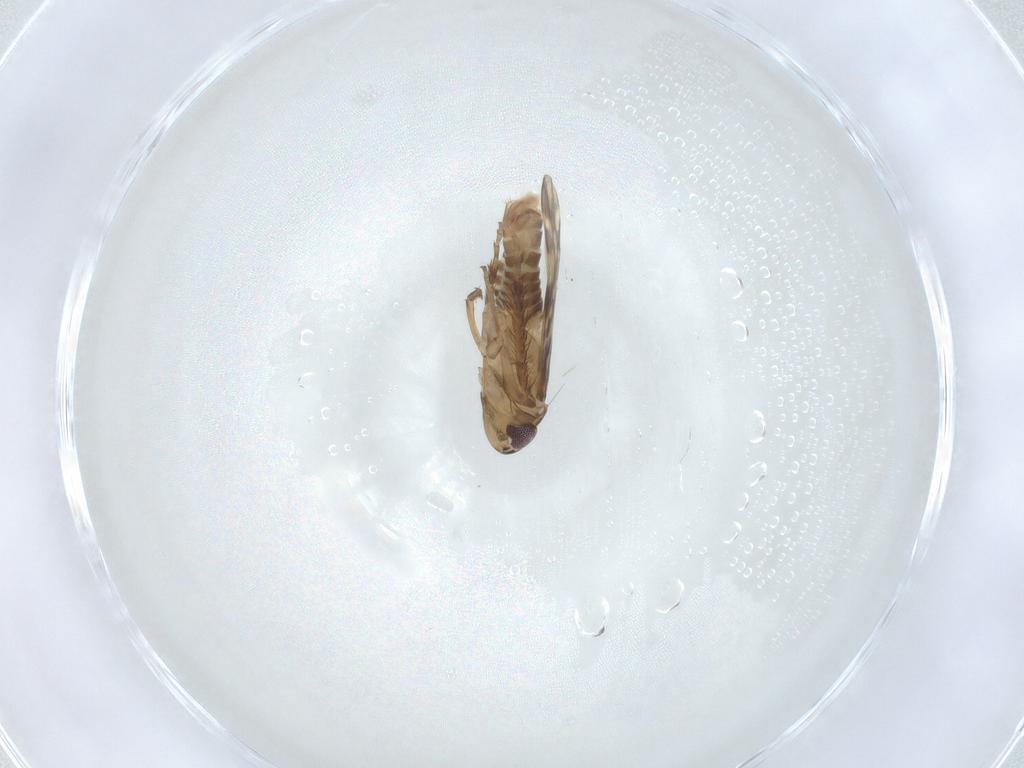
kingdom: Animalia
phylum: Arthropoda
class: Insecta
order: Hemiptera
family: Cicadellidae
